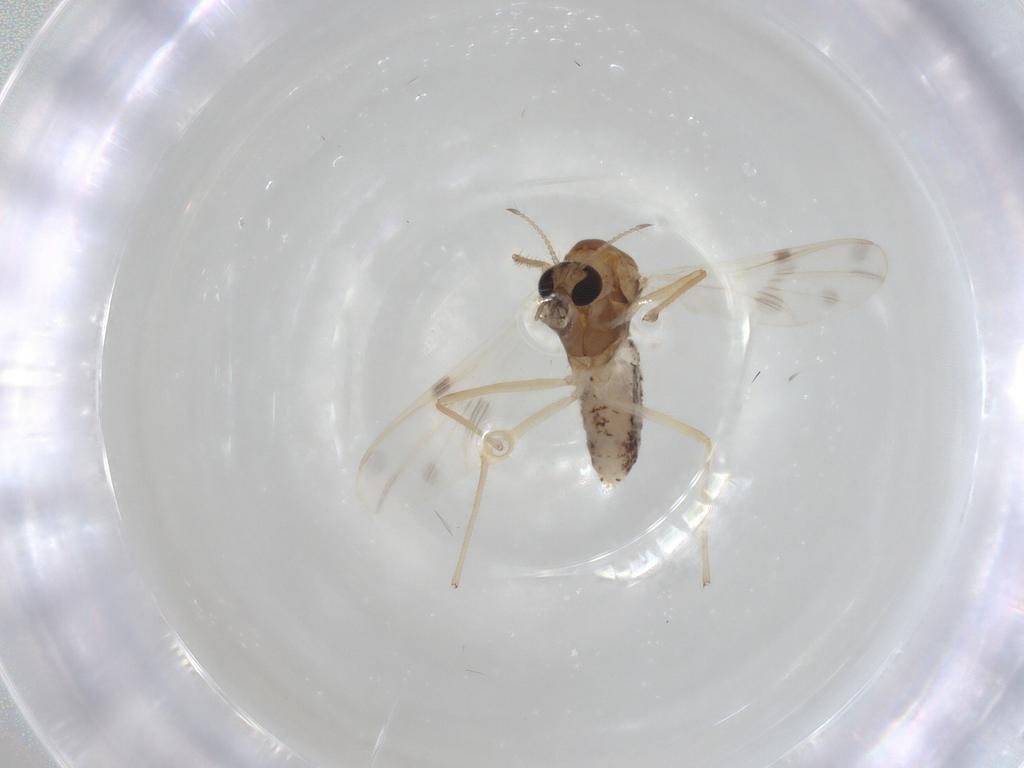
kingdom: Animalia
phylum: Arthropoda
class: Insecta
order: Diptera
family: Chironomidae
